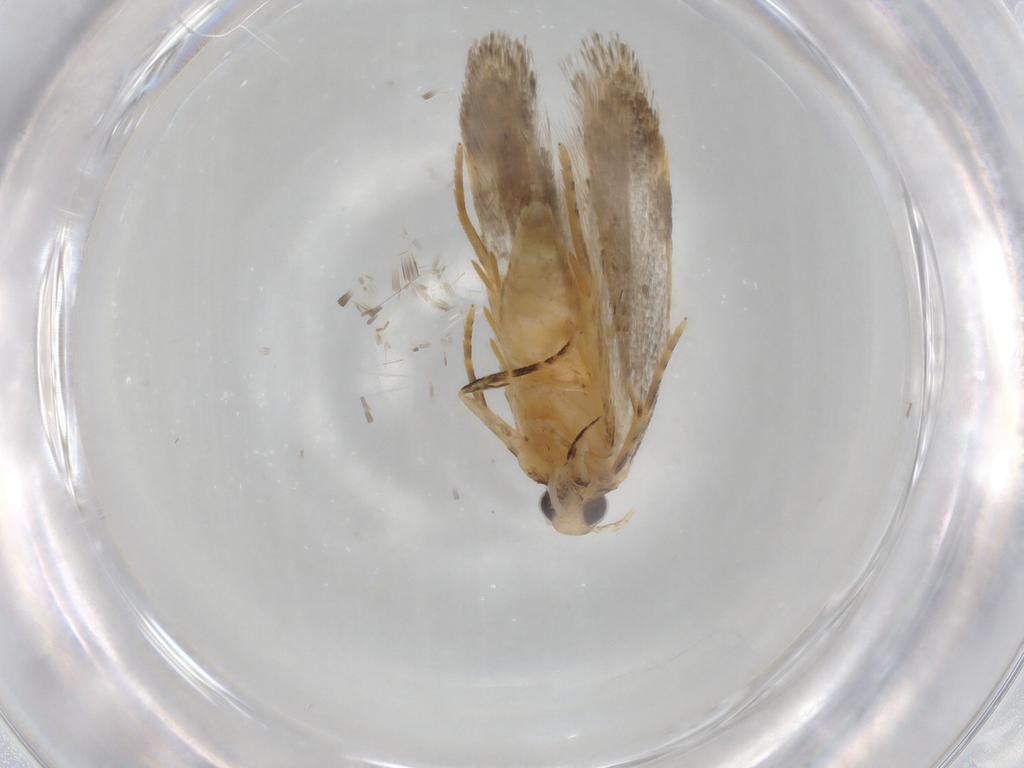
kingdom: Animalia
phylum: Arthropoda
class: Insecta
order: Lepidoptera
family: Autostichidae
